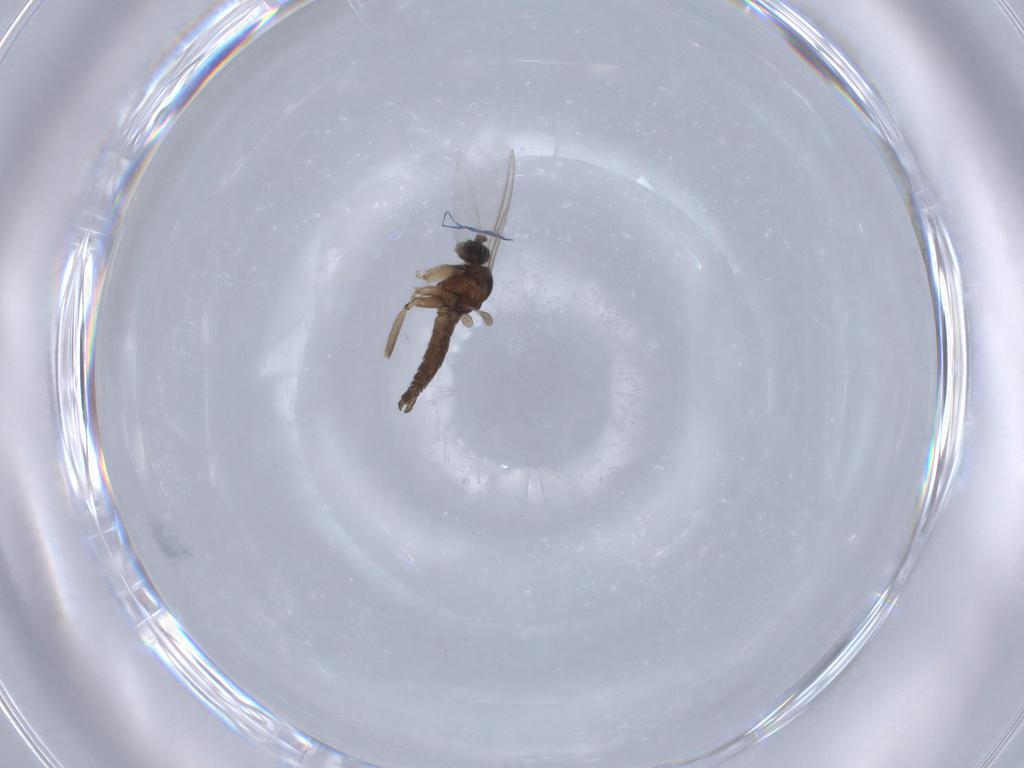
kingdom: Animalia
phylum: Arthropoda
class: Insecta
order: Diptera
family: Cecidomyiidae
